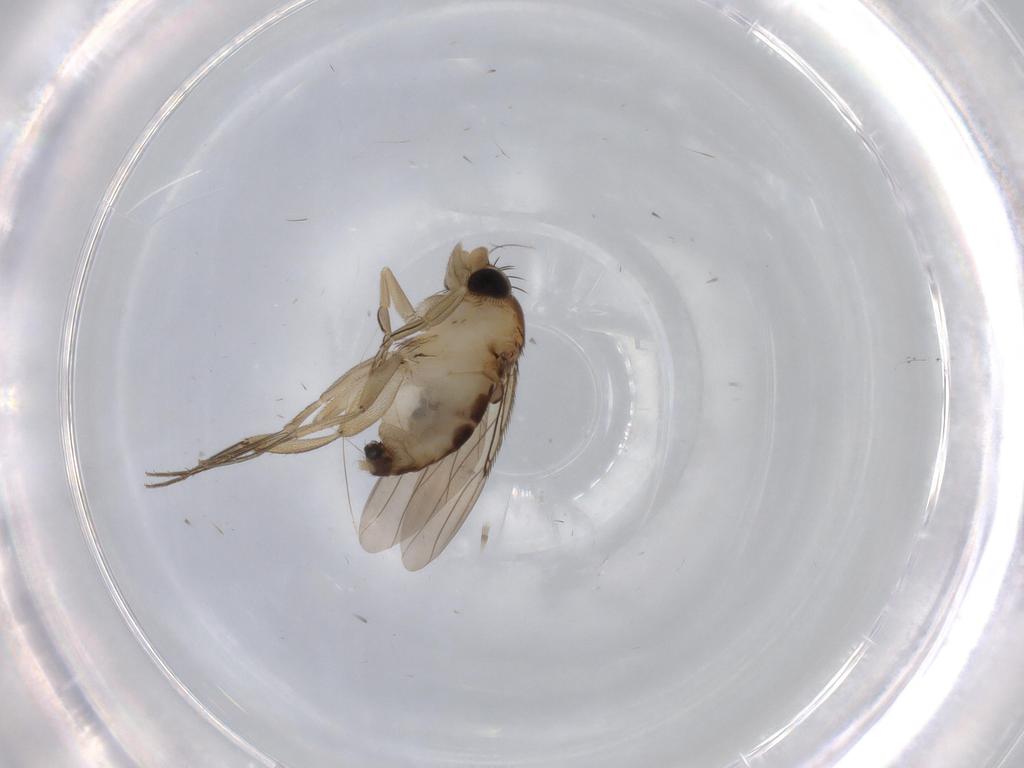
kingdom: Animalia
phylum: Arthropoda
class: Insecta
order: Diptera
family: Phoridae
